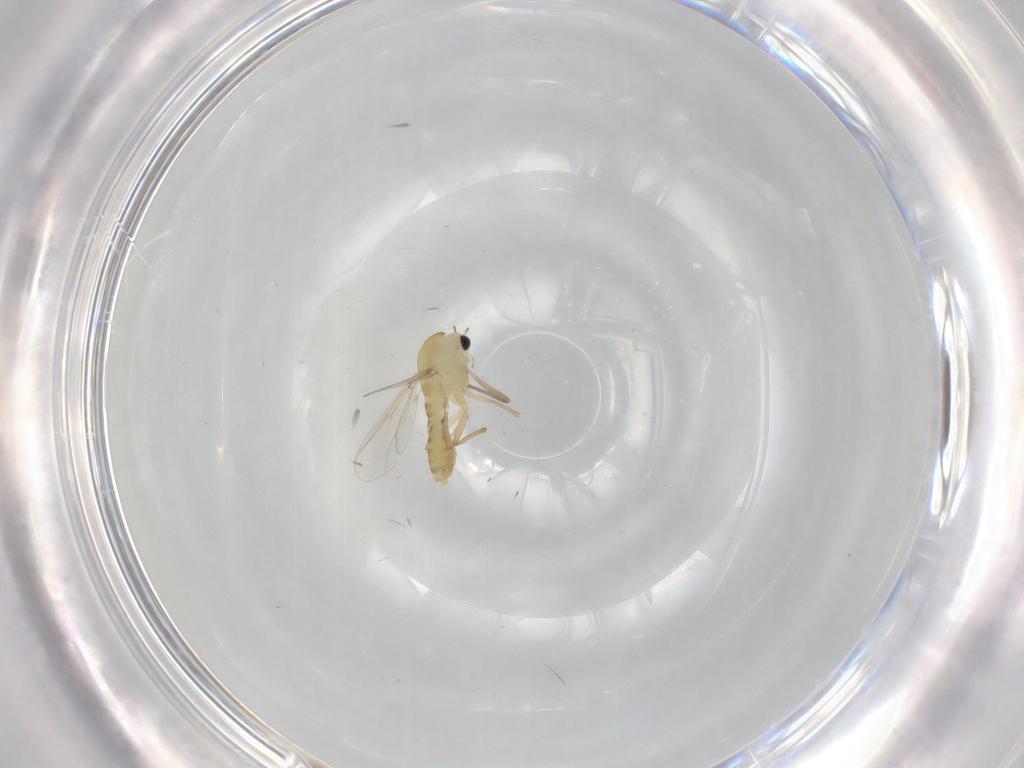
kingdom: Animalia
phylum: Arthropoda
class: Insecta
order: Diptera
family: Chironomidae
